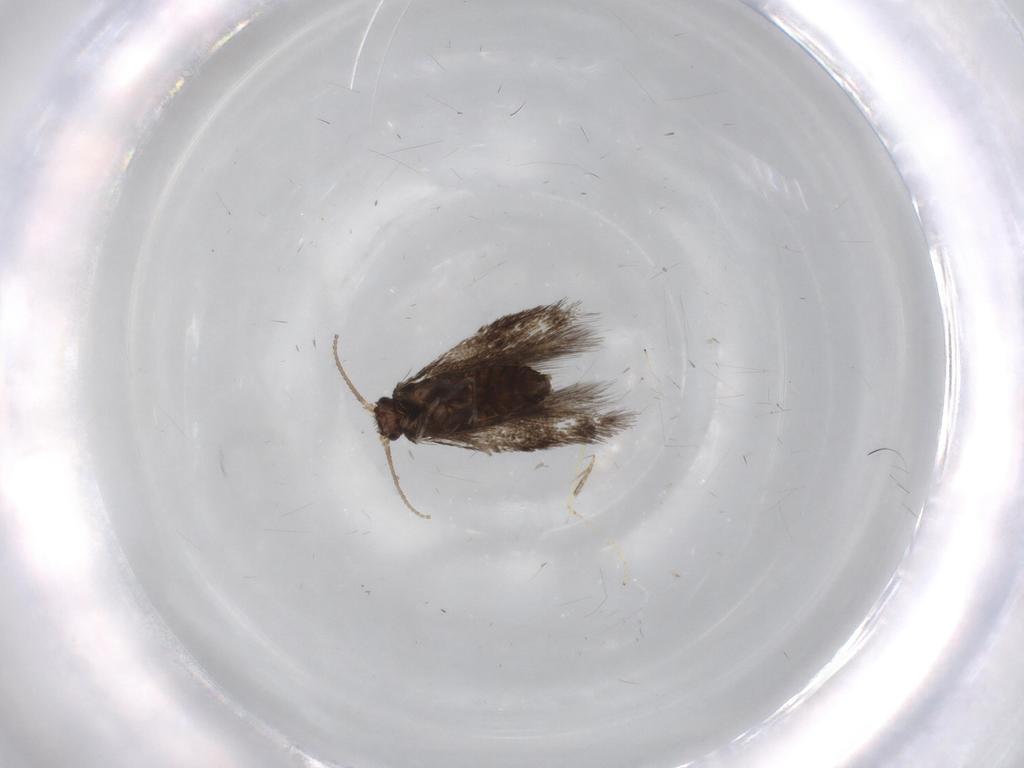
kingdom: Animalia
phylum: Arthropoda
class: Insecta
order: Lepidoptera
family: Nepticulidae
